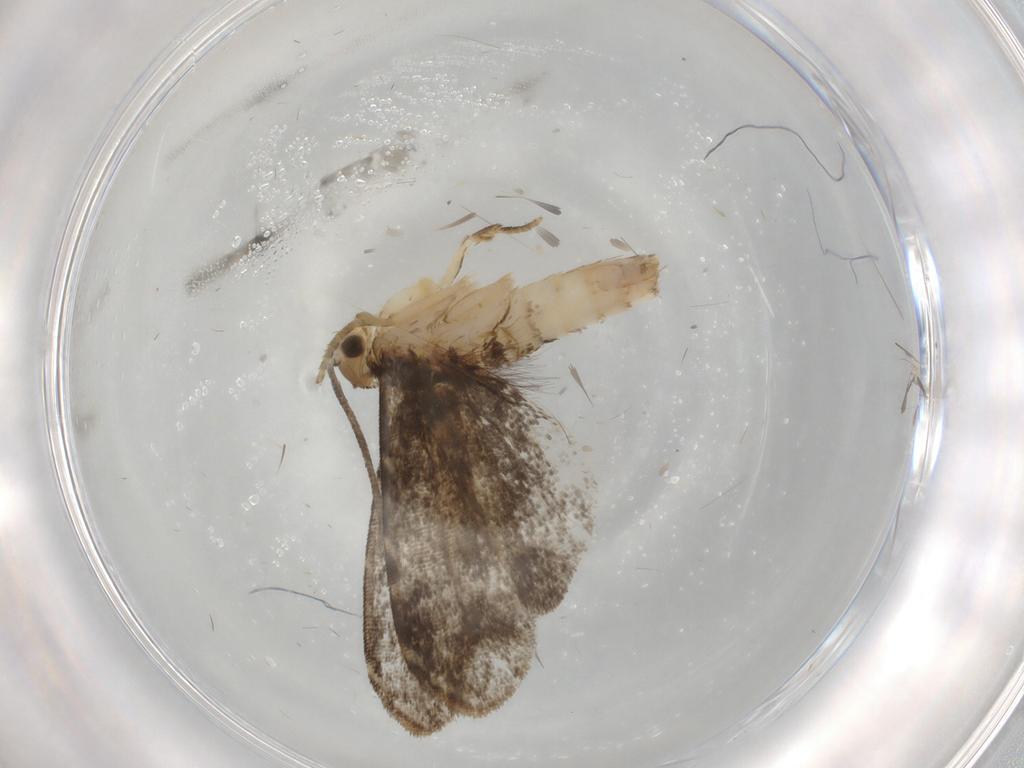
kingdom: Animalia
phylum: Arthropoda
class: Insecta
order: Lepidoptera
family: Dryadaulidae
